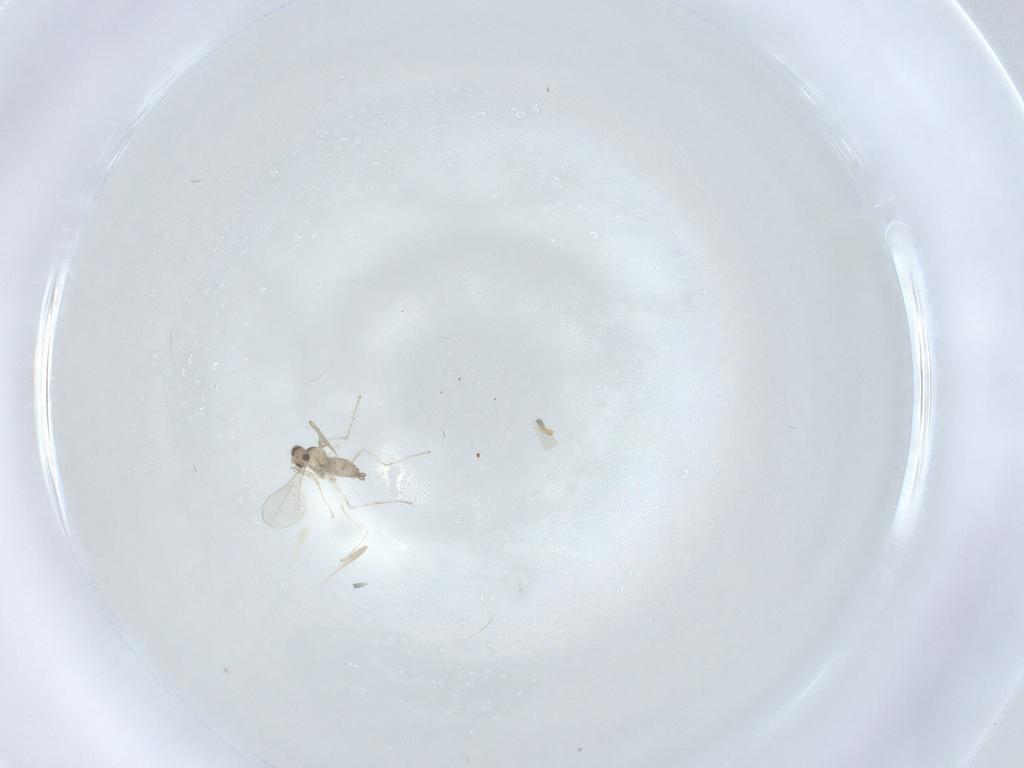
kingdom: Animalia
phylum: Arthropoda
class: Insecta
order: Diptera
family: Cecidomyiidae
